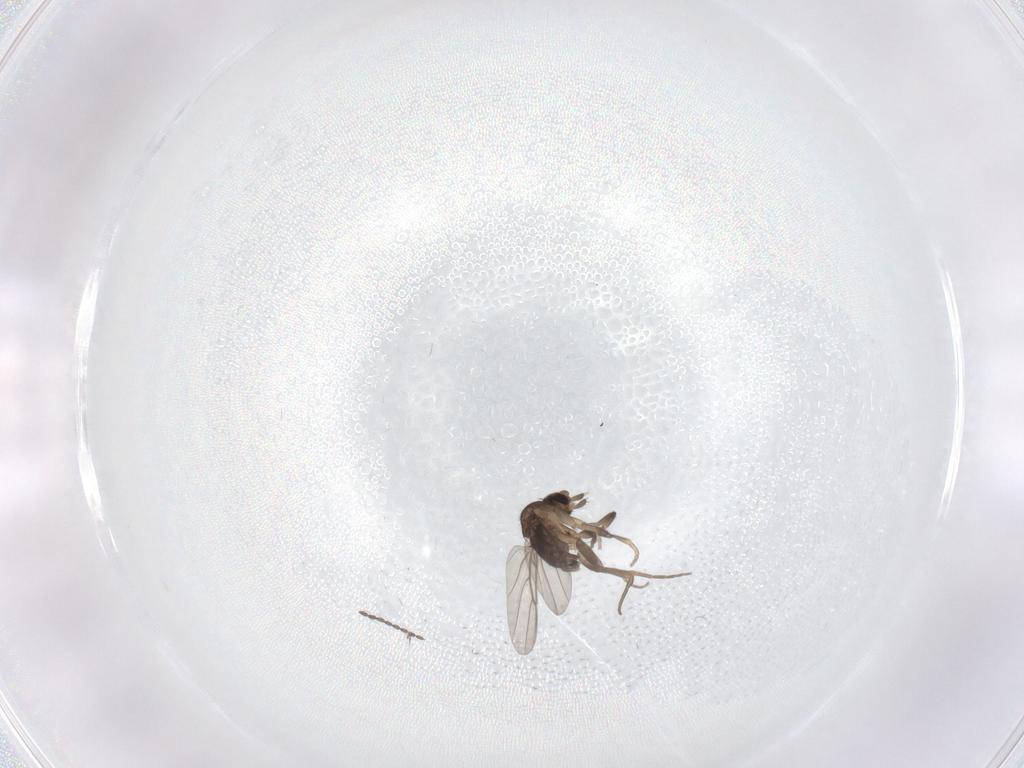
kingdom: Animalia
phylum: Arthropoda
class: Insecta
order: Diptera
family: Phoridae
